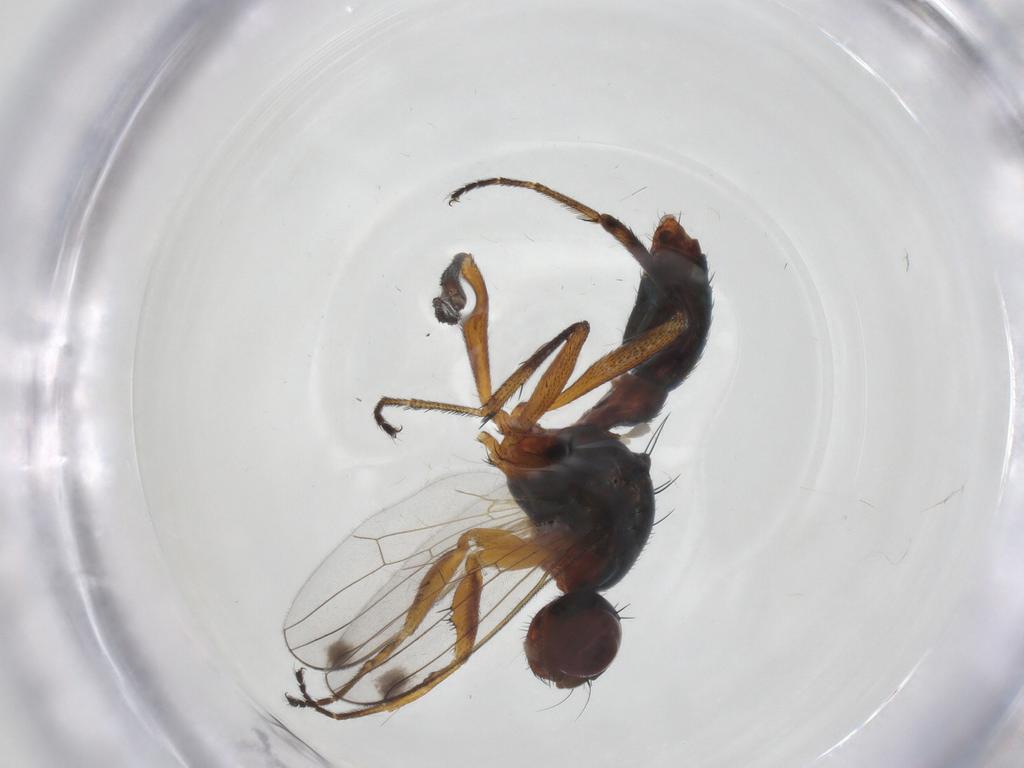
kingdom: Animalia
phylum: Arthropoda
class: Insecta
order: Diptera
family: Sepsidae
